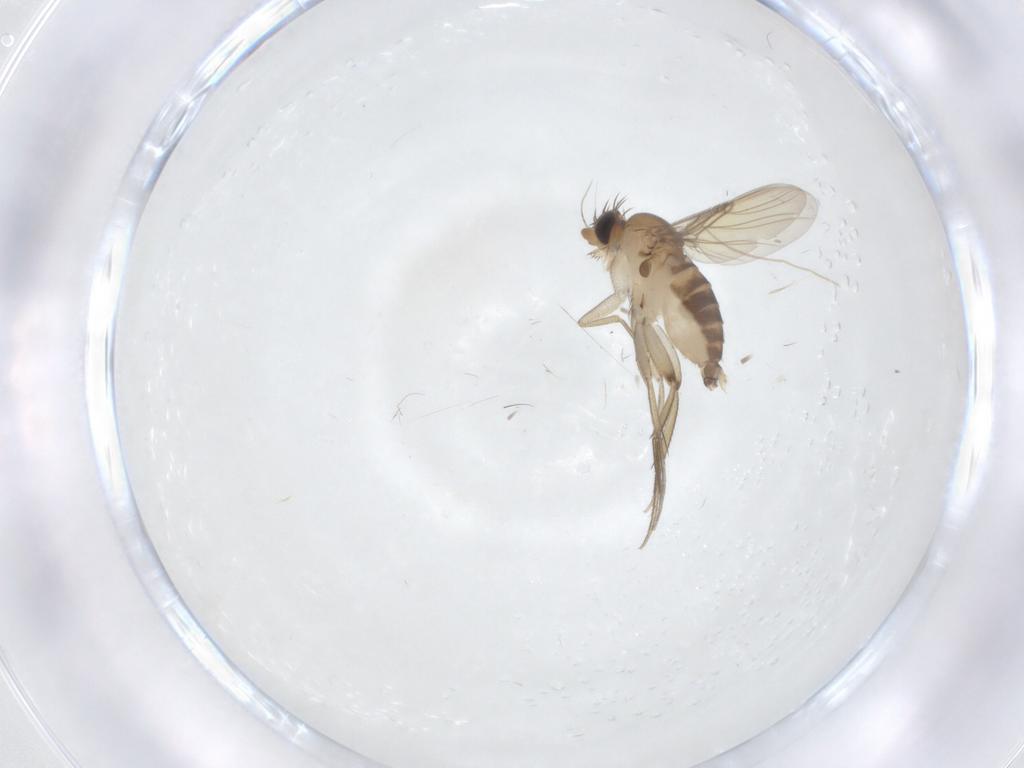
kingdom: Animalia
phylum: Arthropoda
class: Insecta
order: Diptera
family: Phoridae
